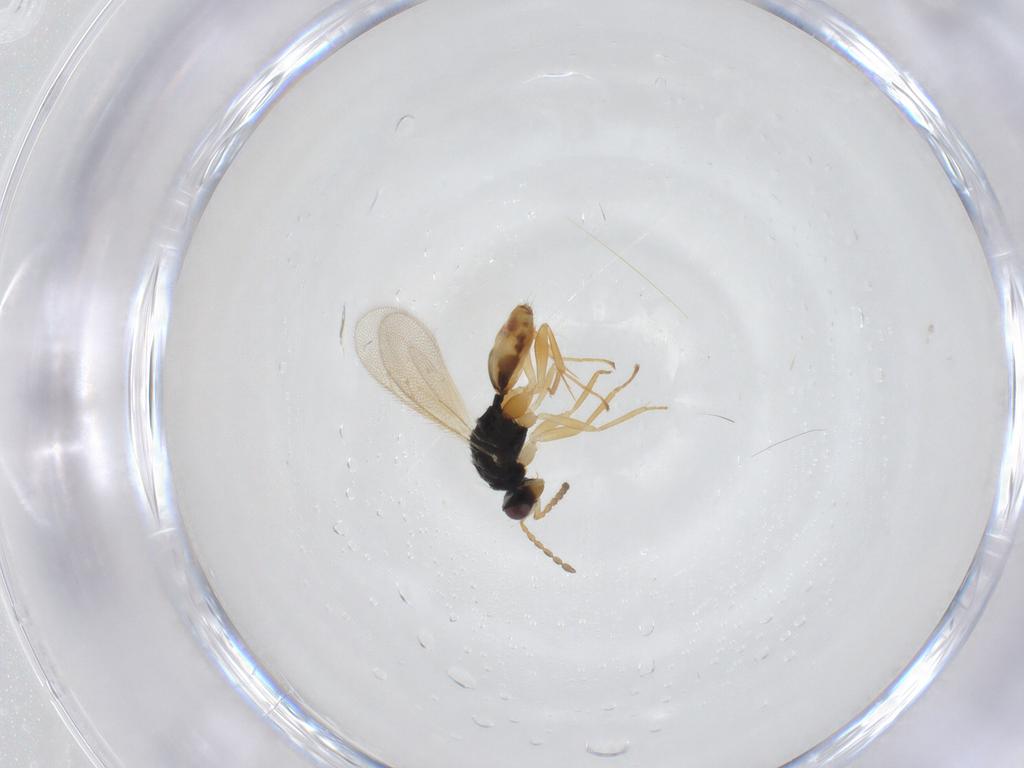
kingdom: Animalia
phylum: Arthropoda
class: Insecta
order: Hymenoptera
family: Eulophidae
